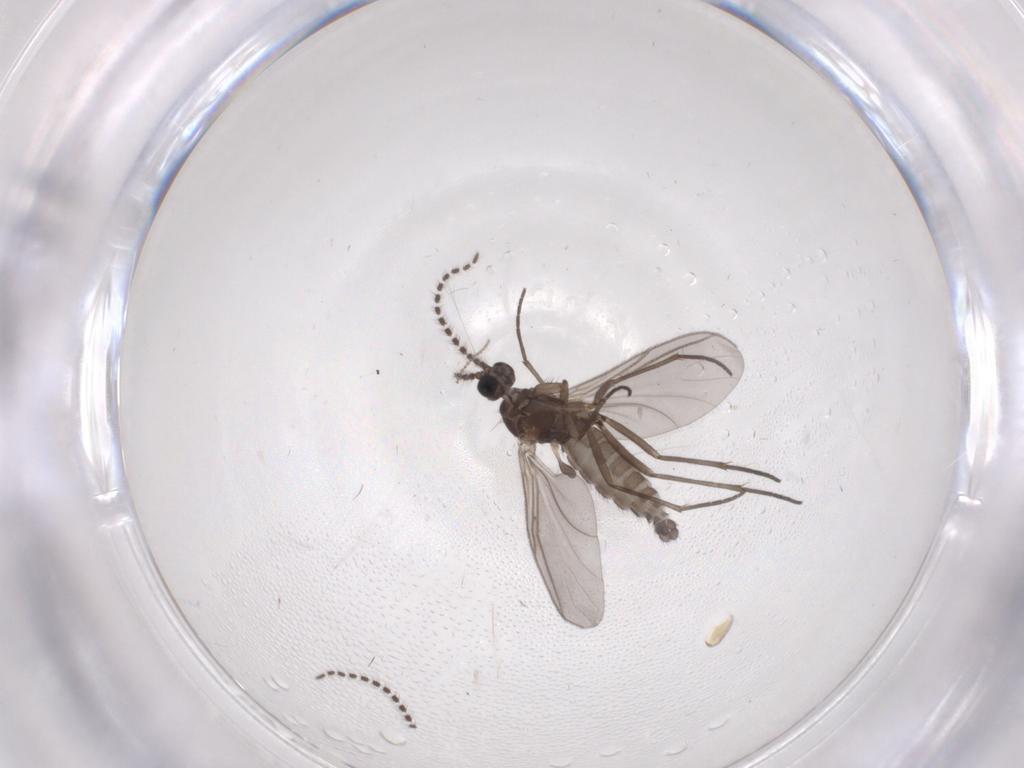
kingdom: Animalia
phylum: Arthropoda
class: Insecta
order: Diptera
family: Sciaridae
